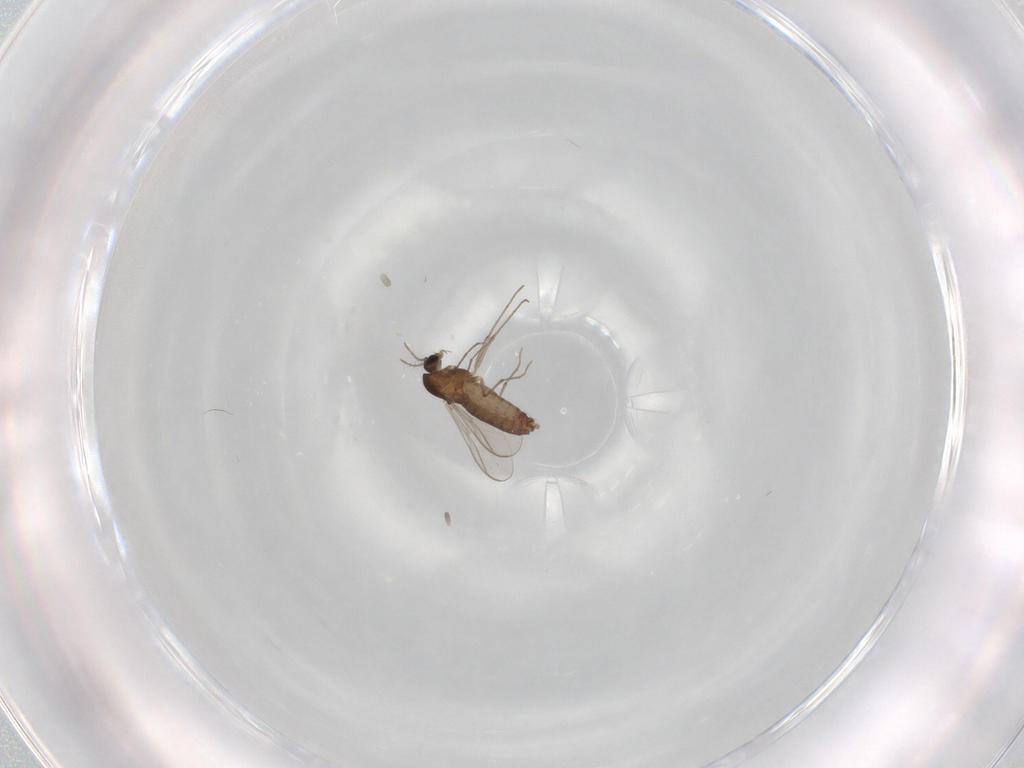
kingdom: Animalia
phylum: Arthropoda
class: Insecta
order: Diptera
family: Chironomidae
